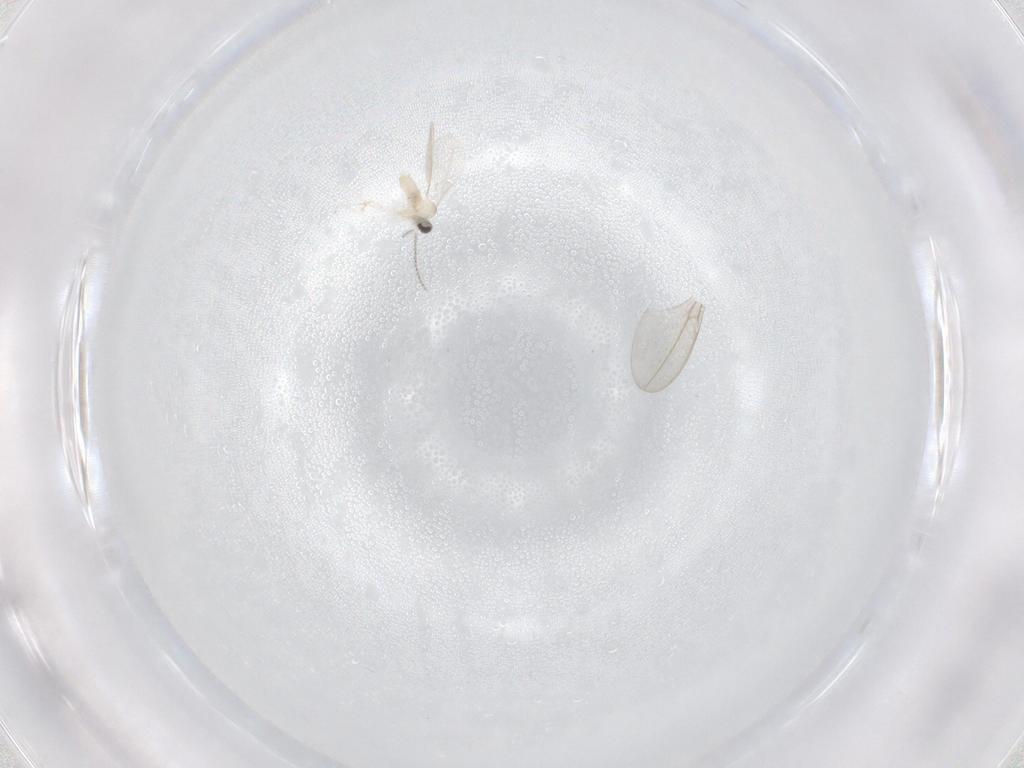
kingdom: Animalia
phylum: Arthropoda
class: Insecta
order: Diptera
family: Cecidomyiidae
